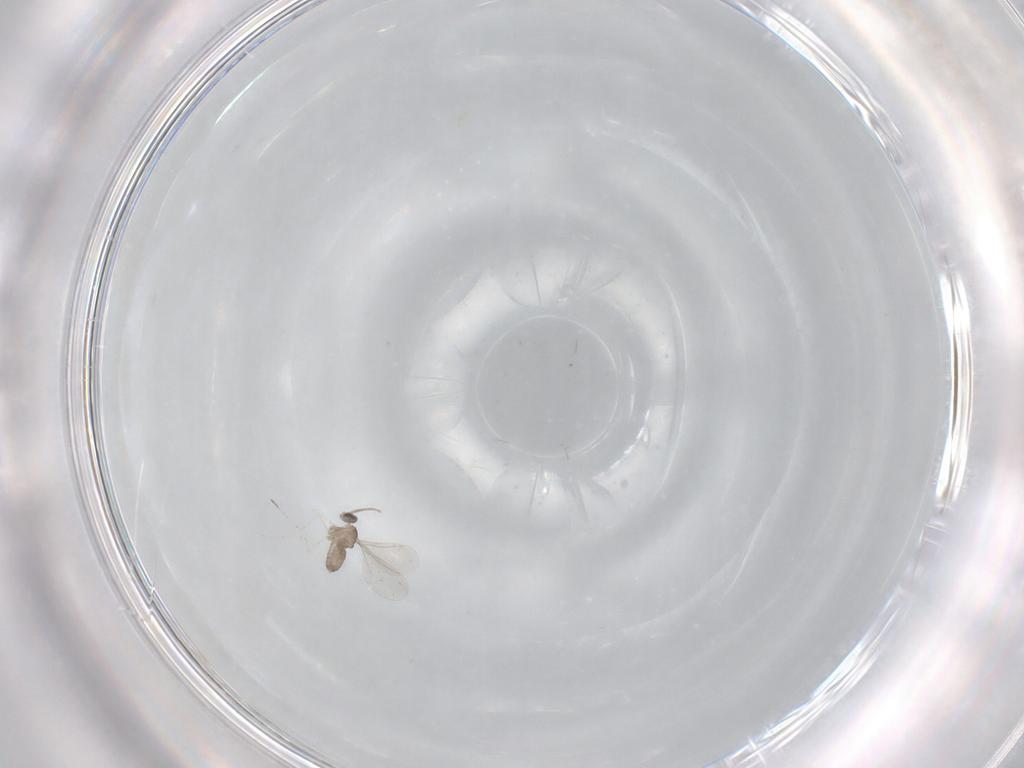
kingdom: Animalia
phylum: Arthropoda
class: Insecta
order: Diptera
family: Cecidomyiidae
